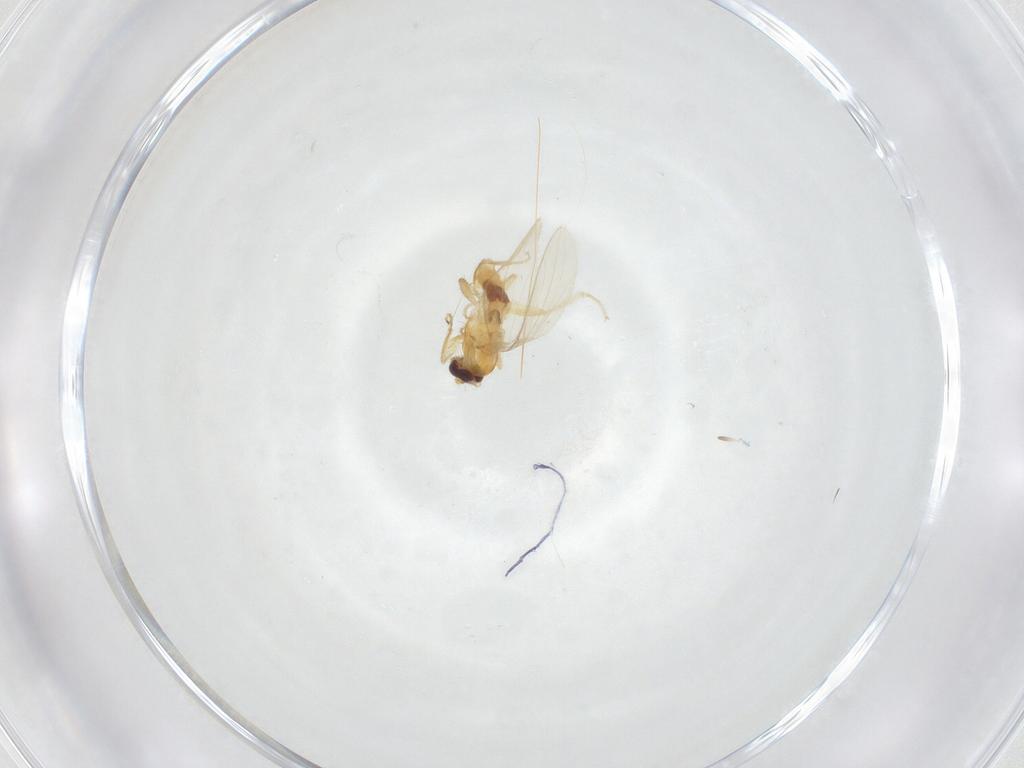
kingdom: Animalia
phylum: Arthropoda
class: Insecta
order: Diptera
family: Periscelididae
